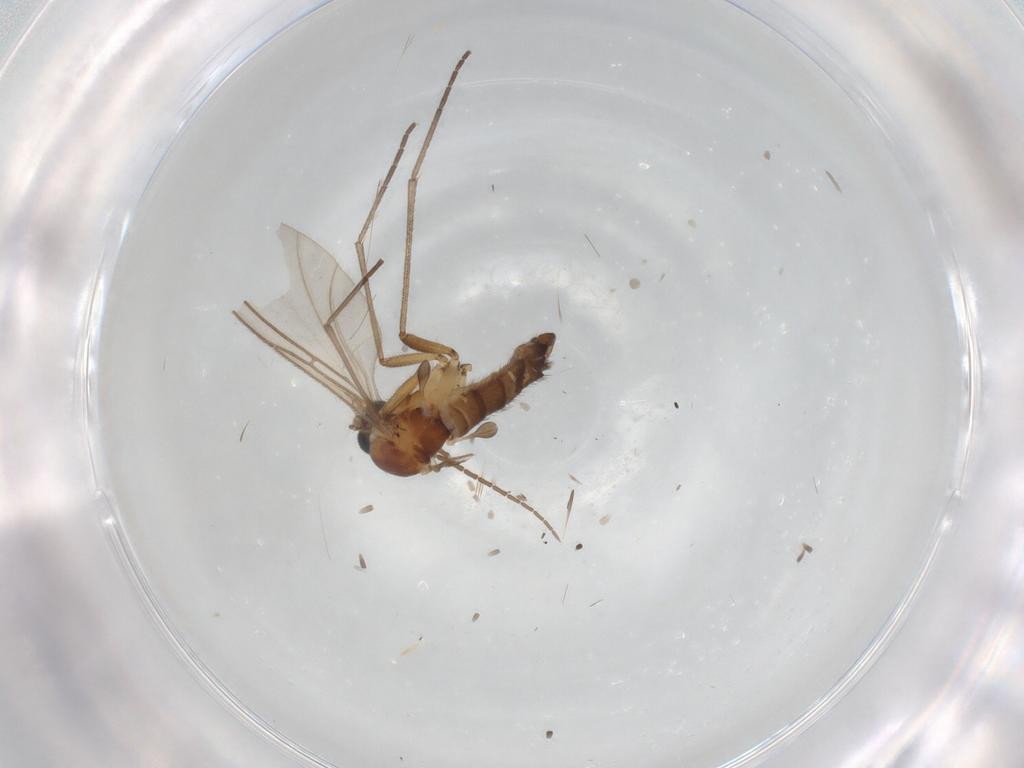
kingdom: Animalia
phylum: Arthropoda
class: Insecta
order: Diptera
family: Sciaridae
